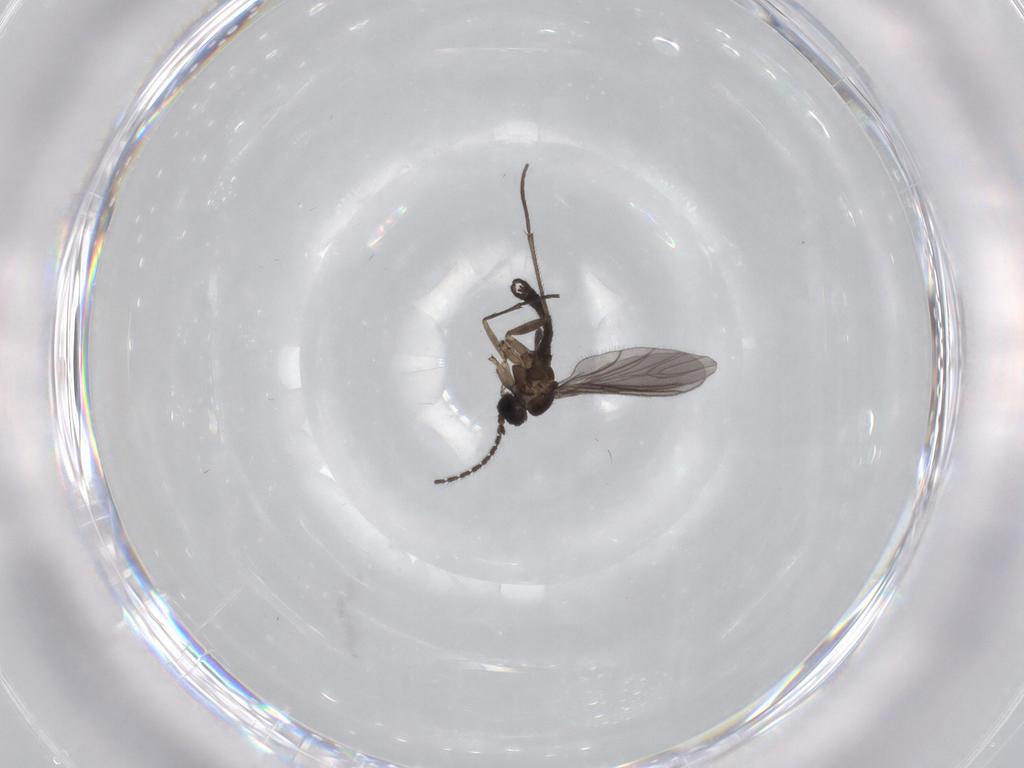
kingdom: Animalia
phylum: Arthropoda
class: Insecta
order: Diptera
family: Sciaridae
